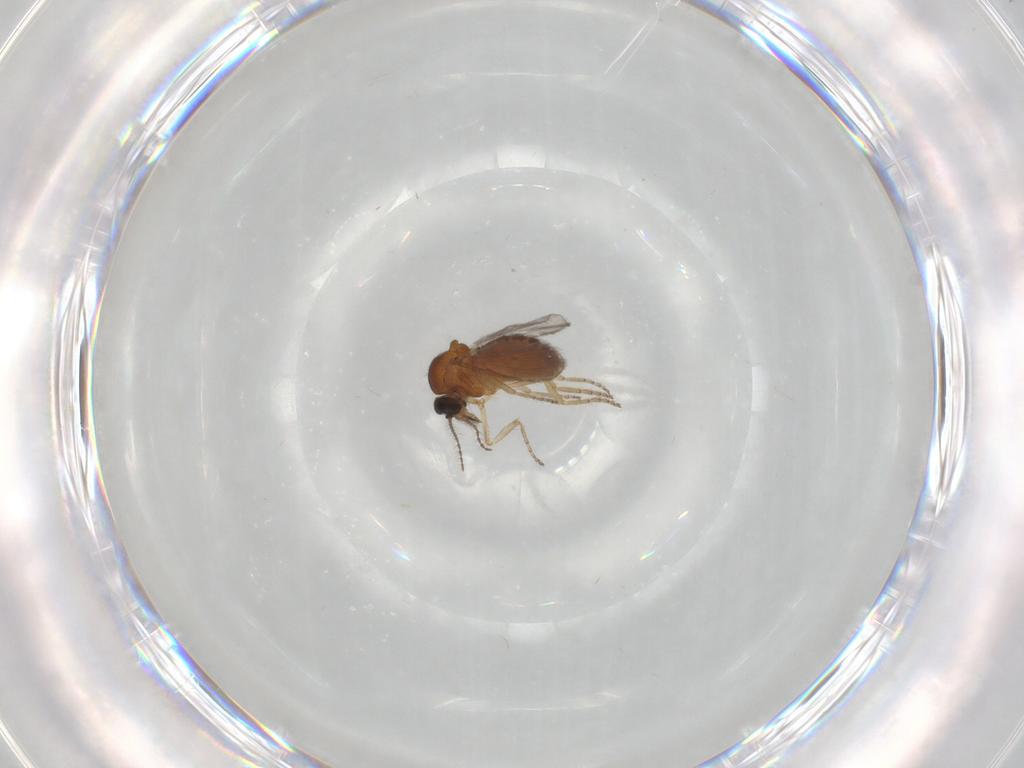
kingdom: Animalia
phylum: Arthropoda
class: Insecta
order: Diptera
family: Ceratopogonidae
